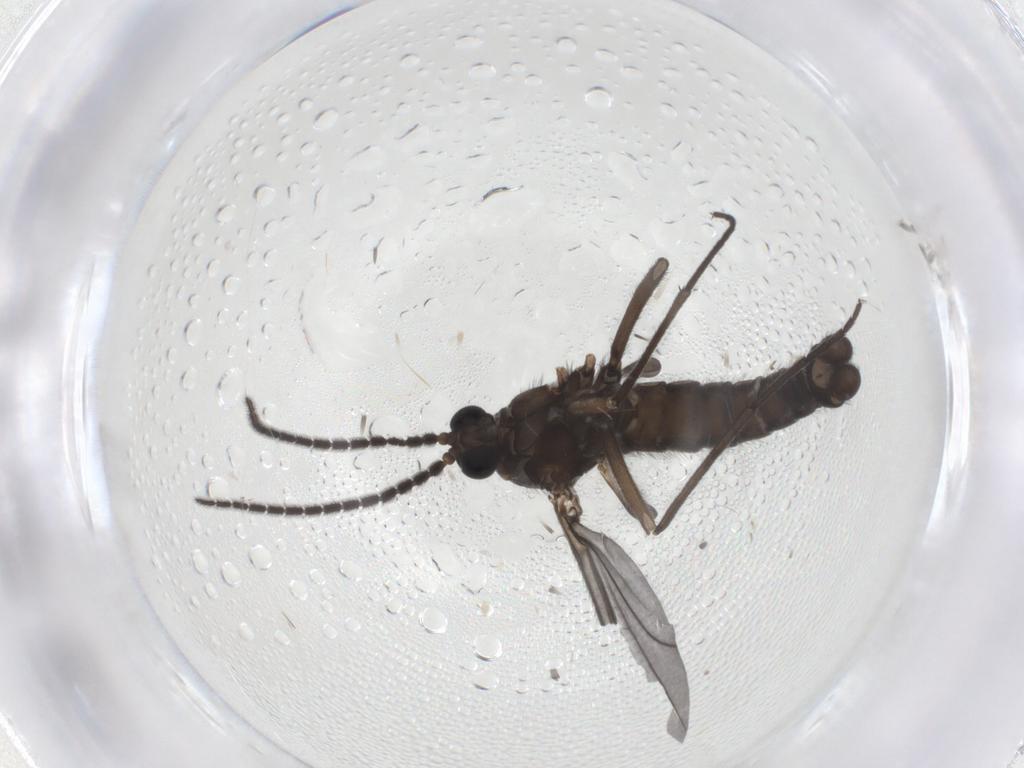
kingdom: Animalia
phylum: Arthropoda
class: Insecta
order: Diptera
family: Sciaridae
